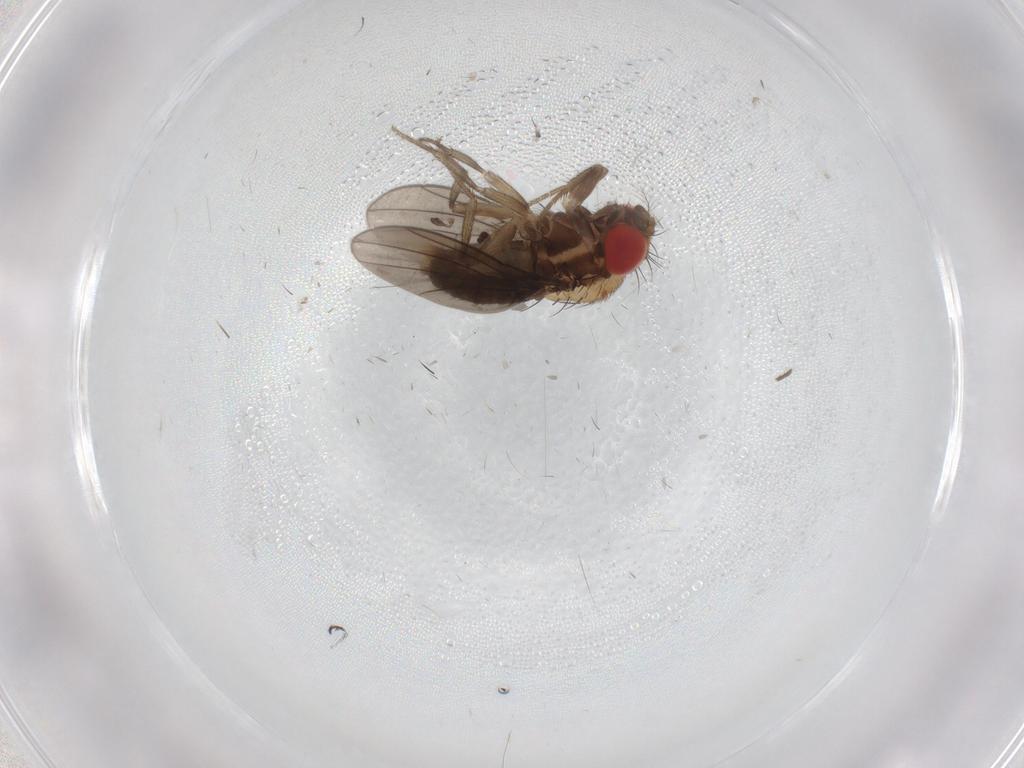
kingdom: Animalia
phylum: Arthropoda
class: Insecta
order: Diptera
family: Drosophilidae
